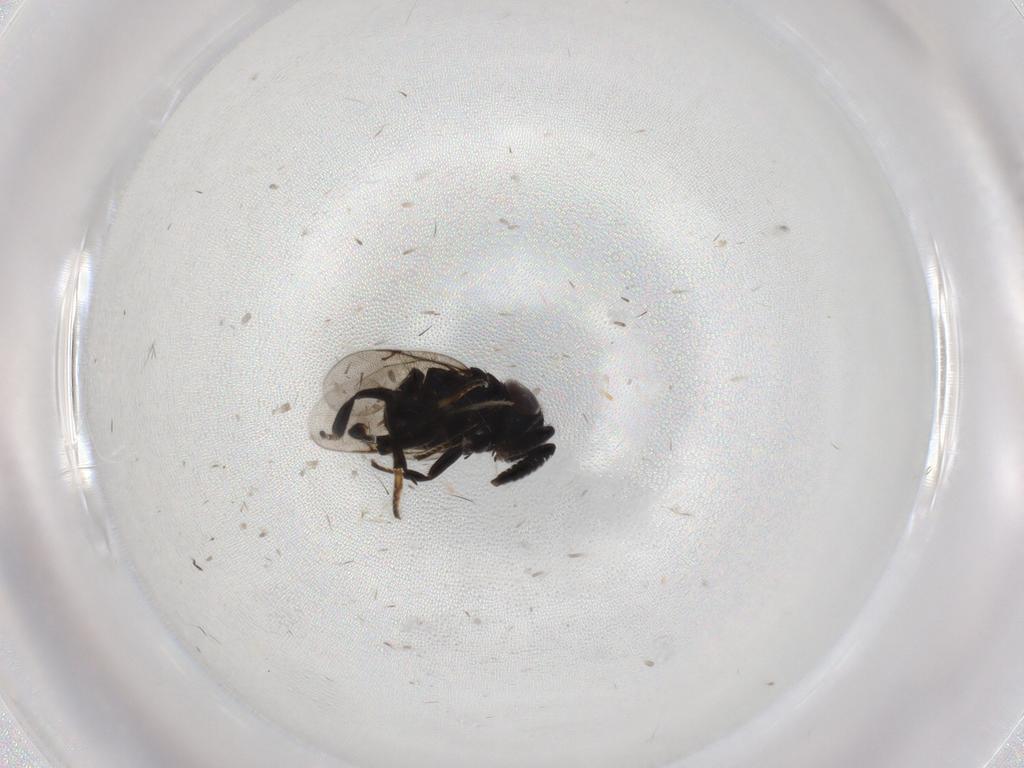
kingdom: Animalia
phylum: Arthropoda
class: Insecta
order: Hymenoptera
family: Encyrtidae
